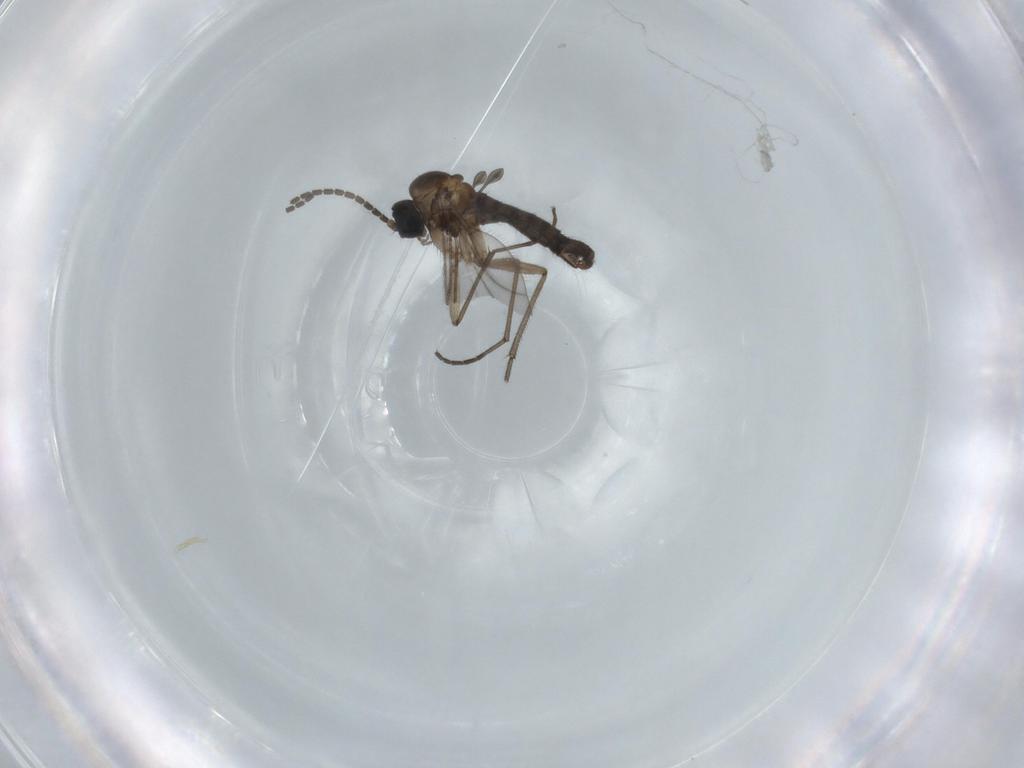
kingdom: Animalia
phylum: Arthropoda
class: Insecta
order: Diptera
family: Sciaridae
